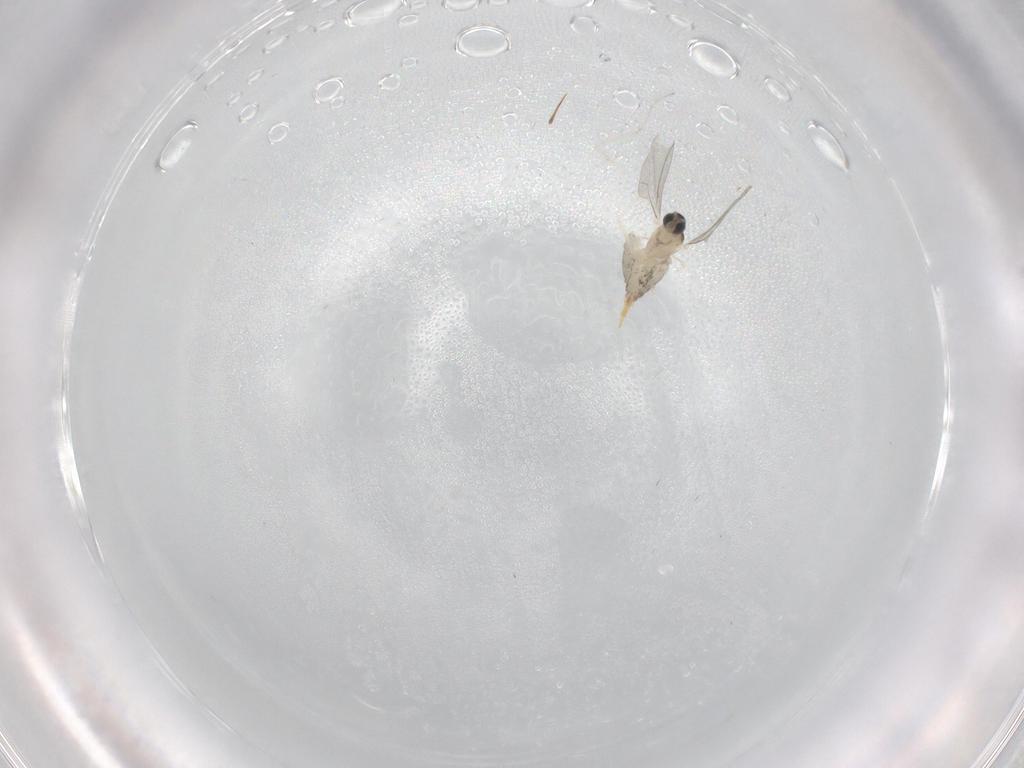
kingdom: Animalia
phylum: Arthropoda
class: Insecta
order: Diptera
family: Cecidomyiidae
